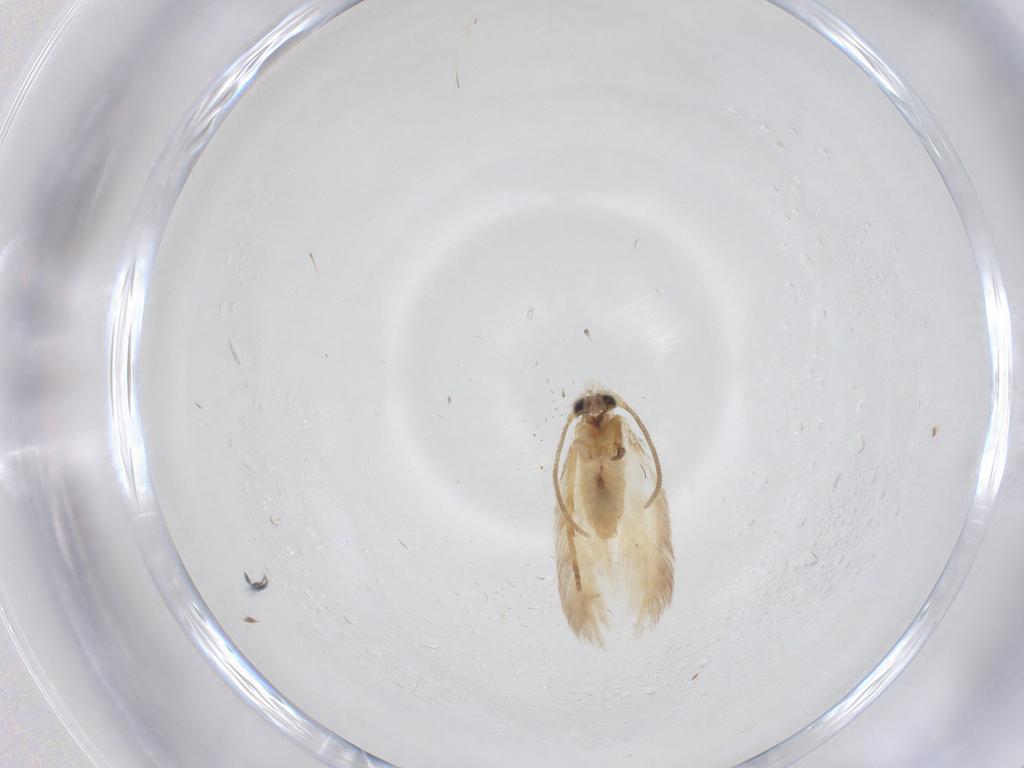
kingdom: Animalia
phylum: Arthropoda
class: Insecta
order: Lepidoptera
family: Nepticulidae
